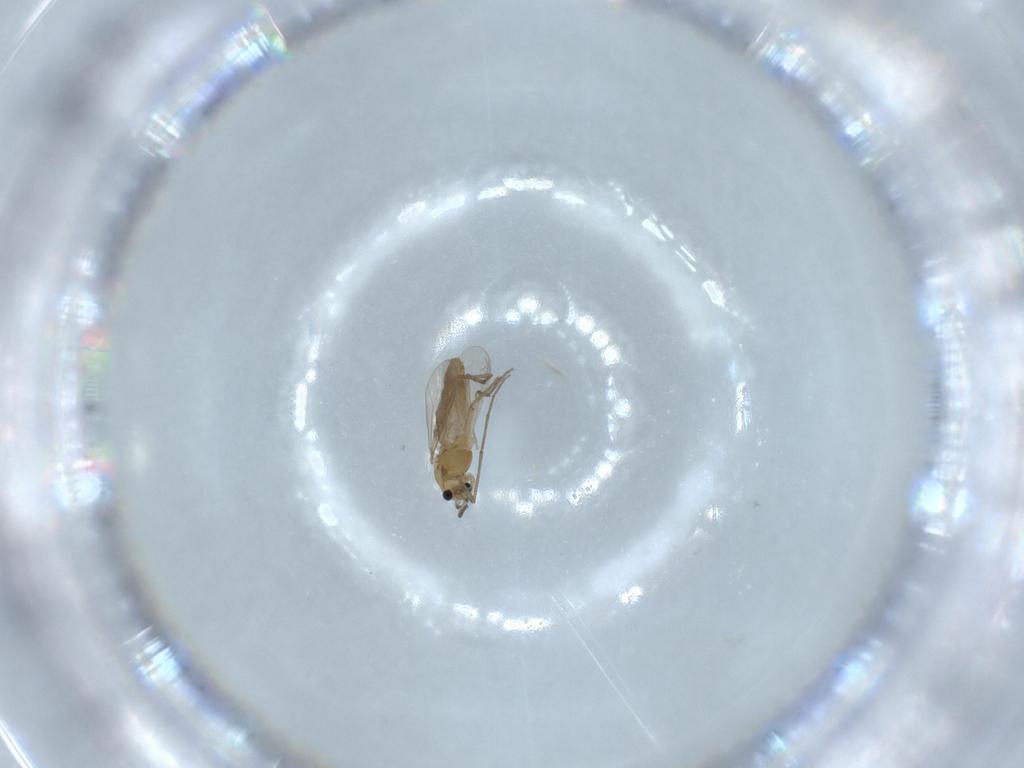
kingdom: Animalia
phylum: Arthropoda
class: Insecta
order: Diptera
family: Chironomidae
